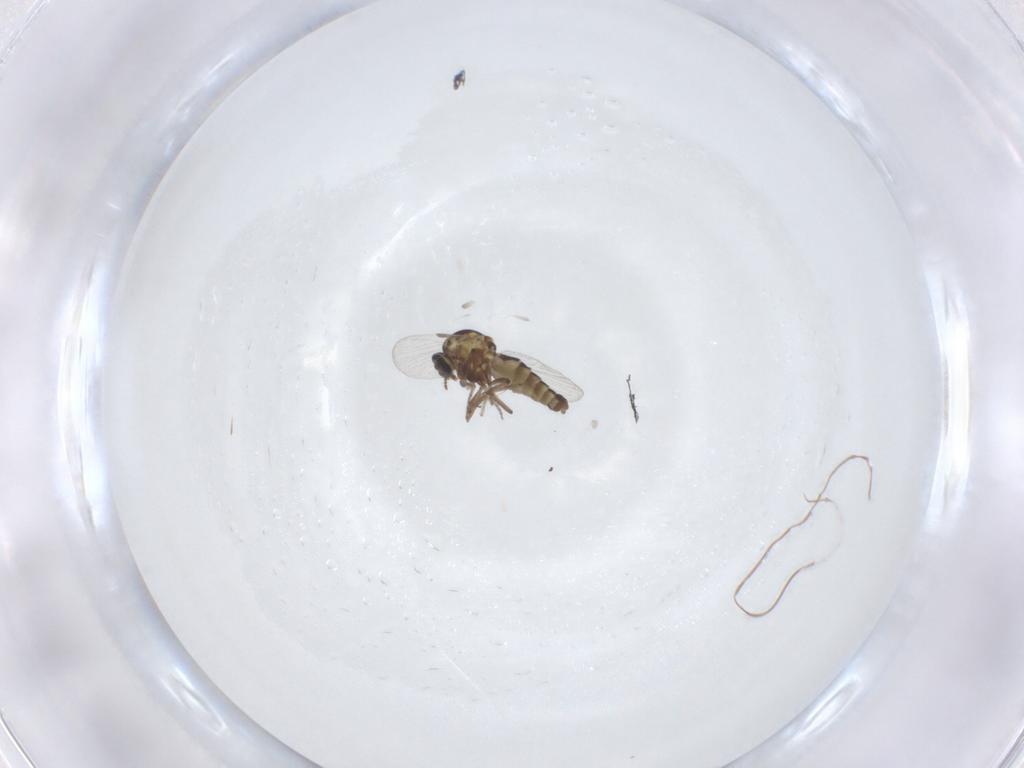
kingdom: Animalia
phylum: Arthropoda
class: Insecta
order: Diptera
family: Ceratopogonidae
